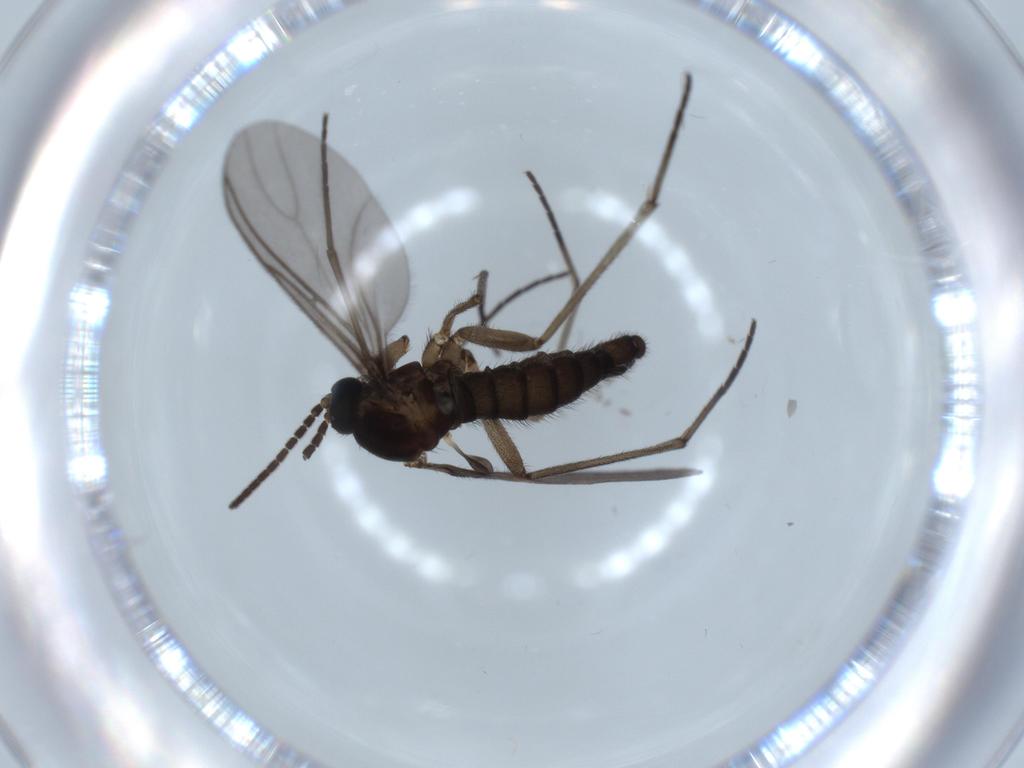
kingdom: Animalia
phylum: Arthropoda
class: Insecta
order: Diptera
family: Sciaridae
